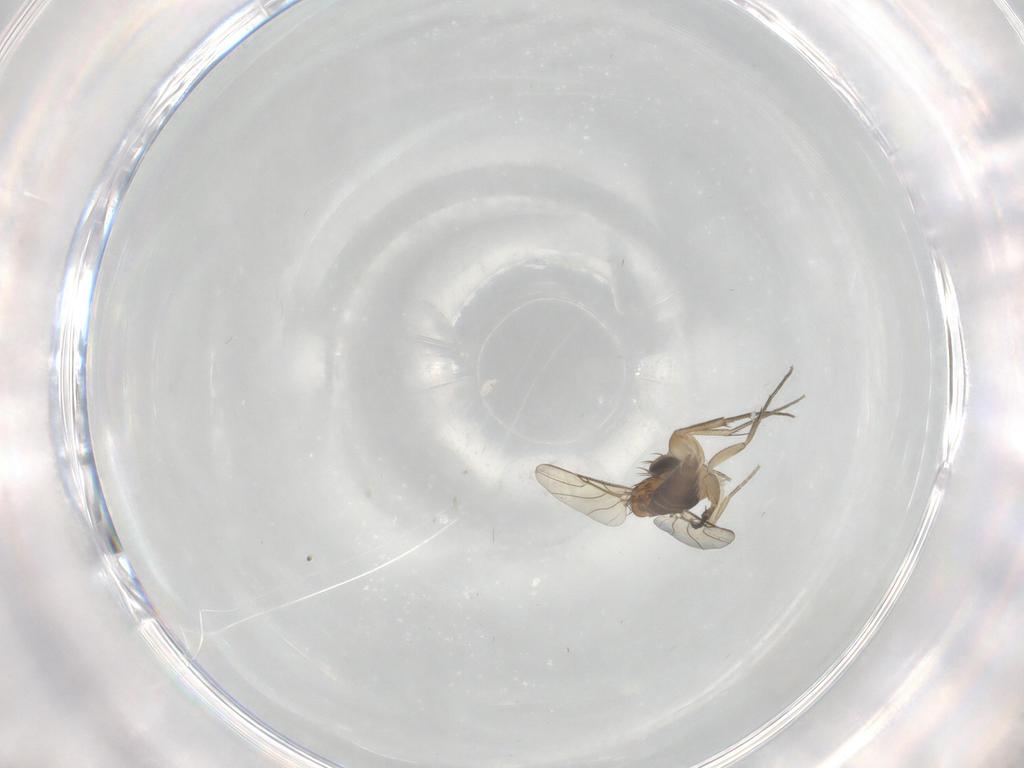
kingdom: Animalia
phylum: Arthropoda
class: Insecta
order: Diptera
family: Phoridae
